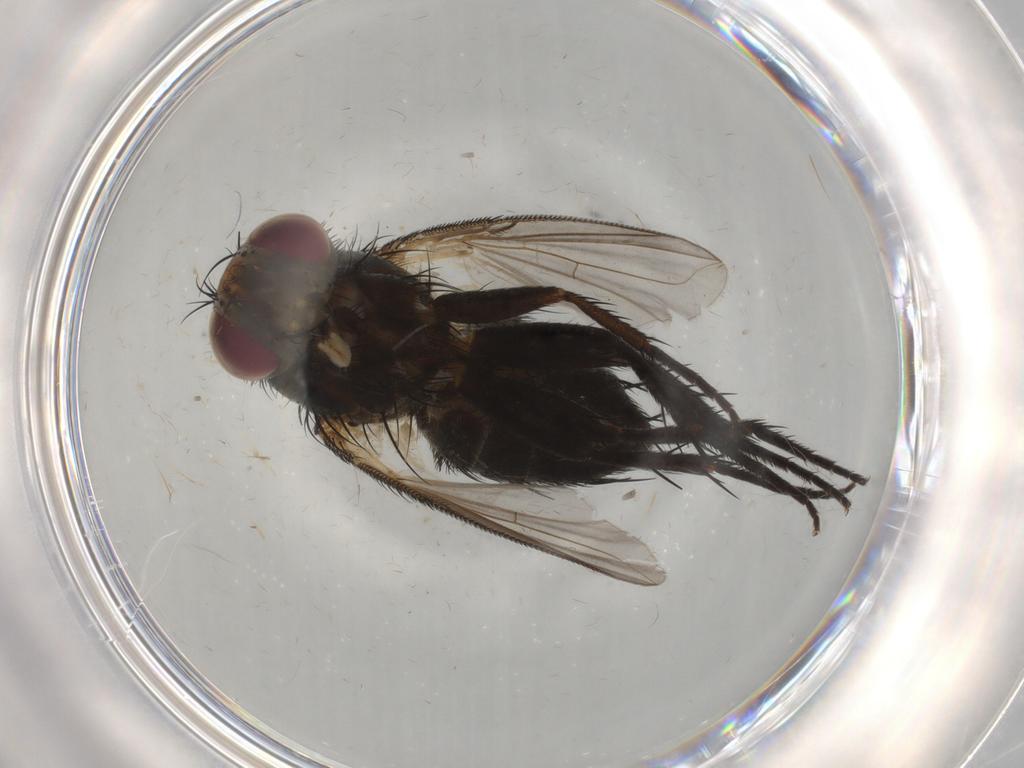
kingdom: Animalia
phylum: Arthropoda
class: Insecta
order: Diptera
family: Chironomidae
